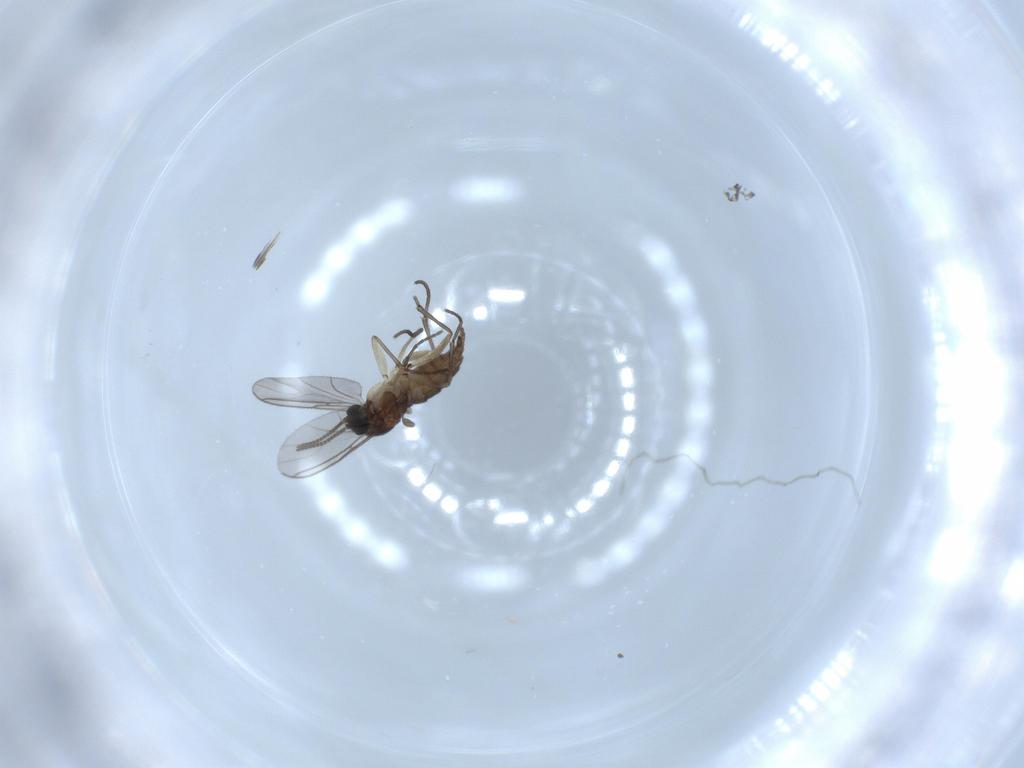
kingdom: Animalia
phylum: Arthropoda
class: Insecta
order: Diptera
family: Sciaridae
